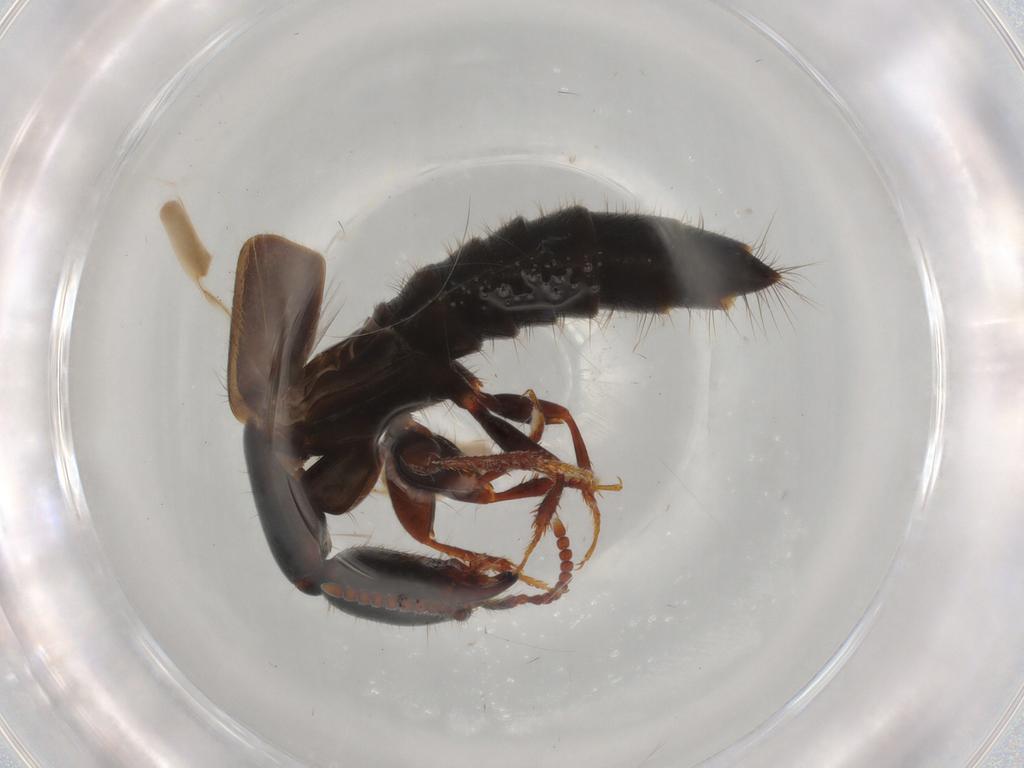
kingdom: Animalia
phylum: Arthropoda
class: Insecta
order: Coleoptera
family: Staphylinidae
